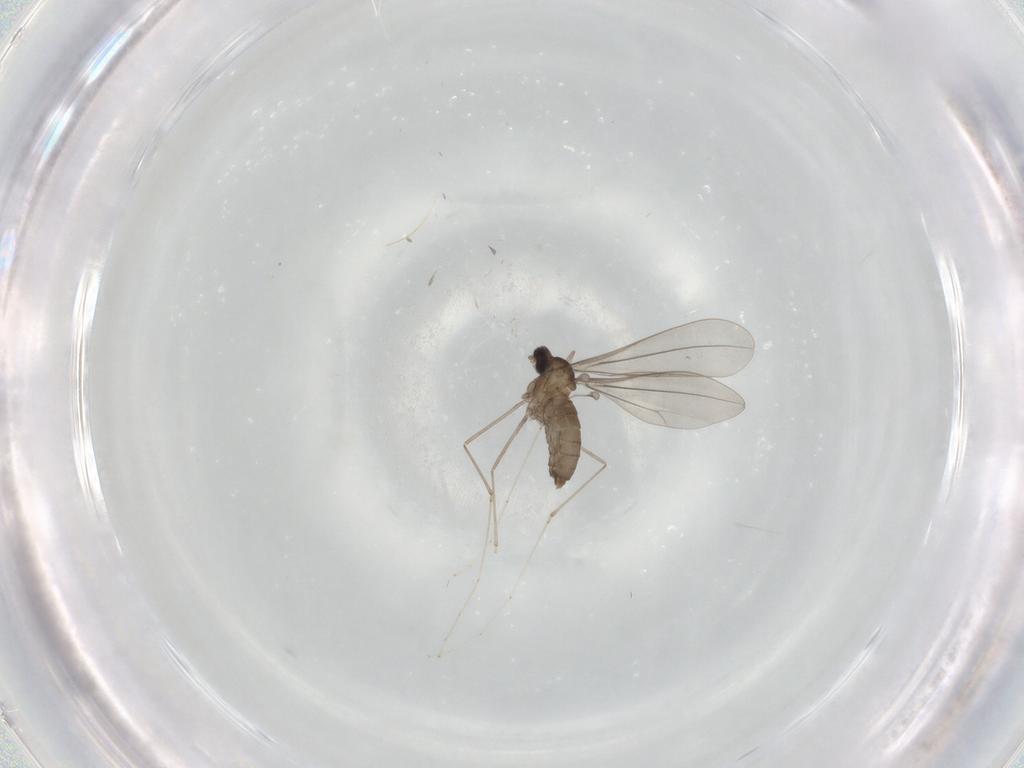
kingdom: Animalia
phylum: Arthropoda
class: Insecta
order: Diptera
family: Cecidomyiidae
